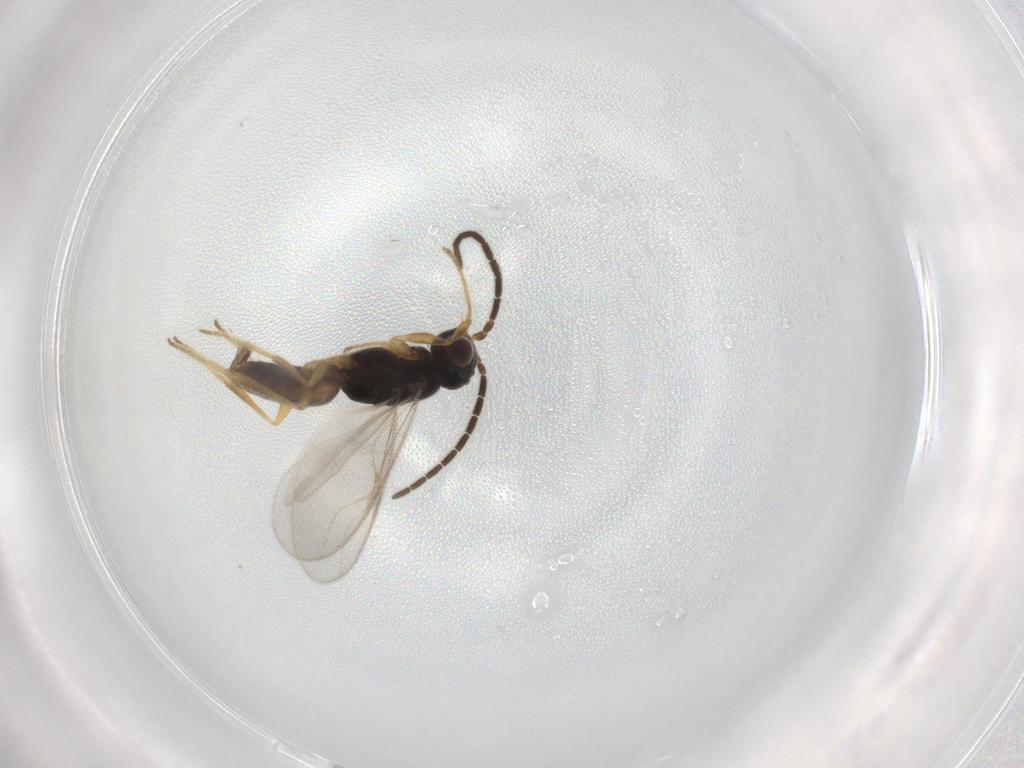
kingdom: Animalia
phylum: Arthropoda
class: Insecta
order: Hymenoptera
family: Dryinidae
